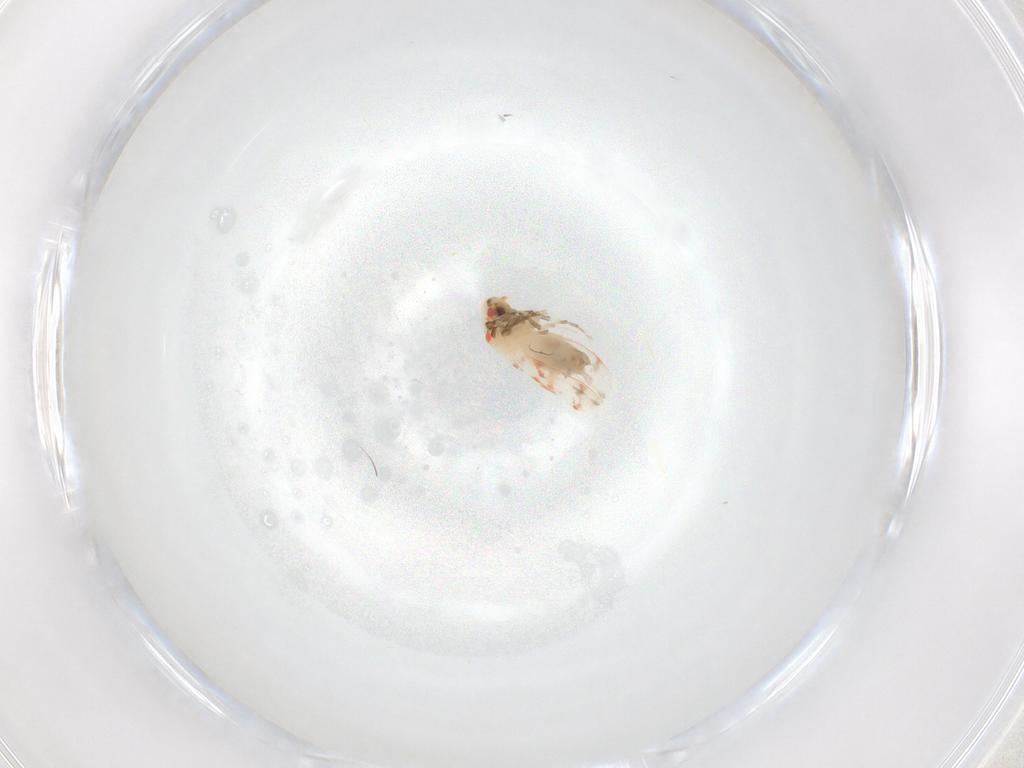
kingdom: Animalia
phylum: Arthropoda
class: Insecta
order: Hemiptera
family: Aleyrodidae
